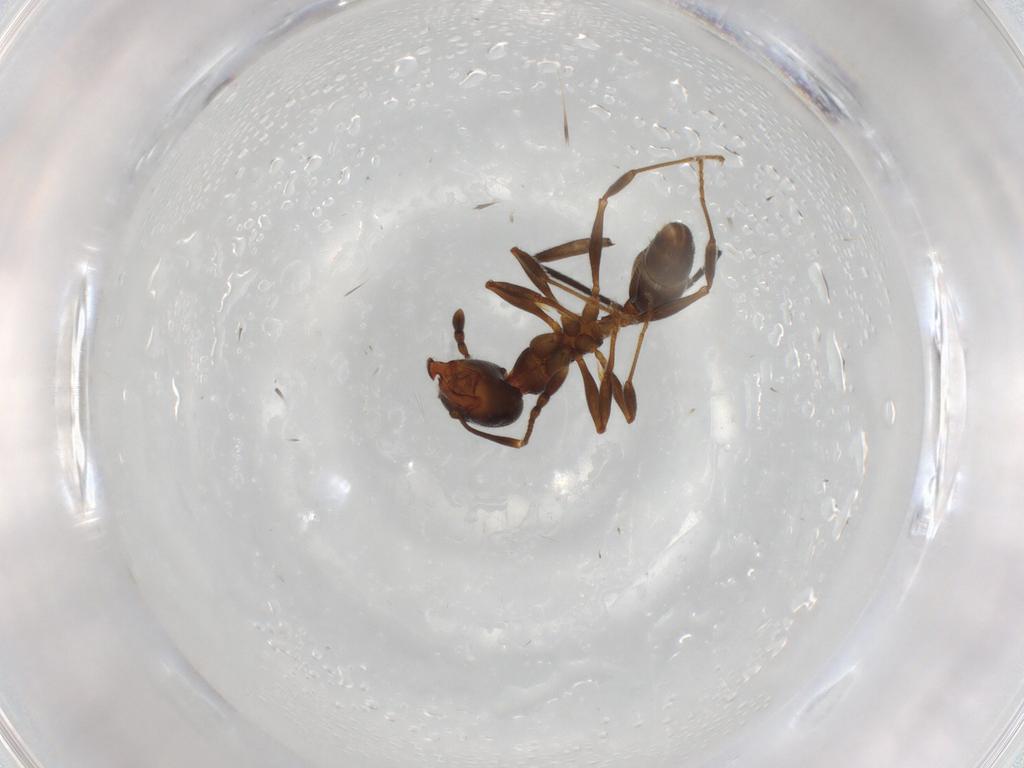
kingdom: Animalia
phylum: Arthropoda
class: Insecta
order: Hymenoptera
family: Formicidae
